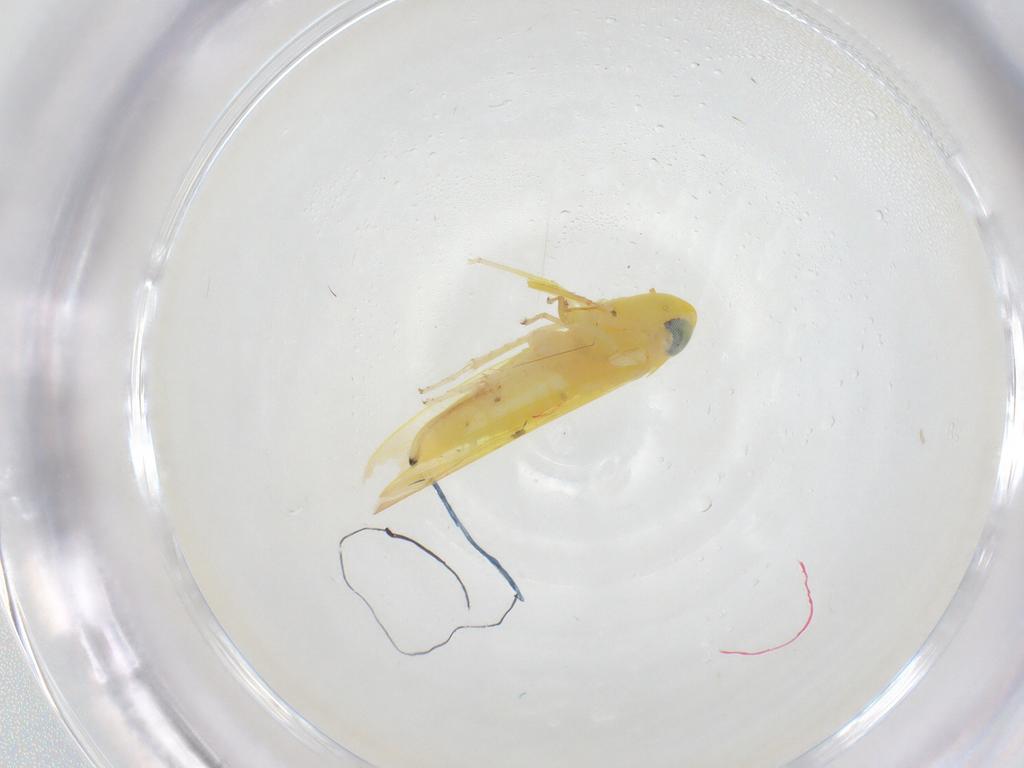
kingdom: Animalia
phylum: Arthropoda
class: Insecta
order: Hemiptera
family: Cicadellidae
